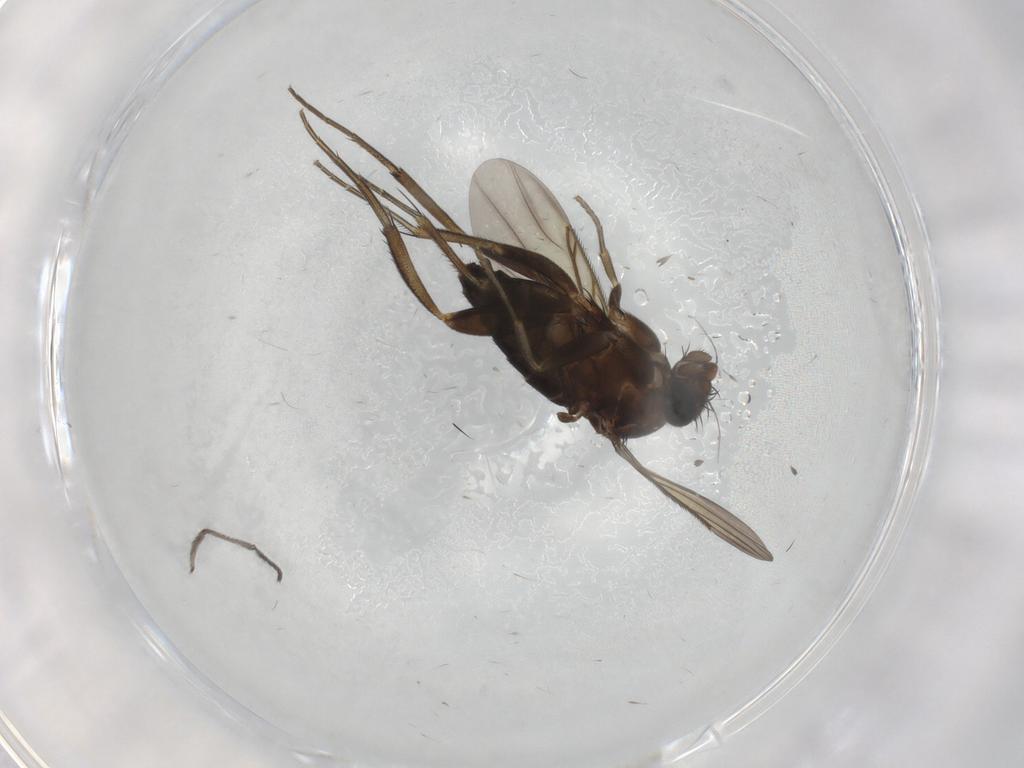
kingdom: Animalia
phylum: Arthropoda
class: Insecta
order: Diptera
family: Phoridae
